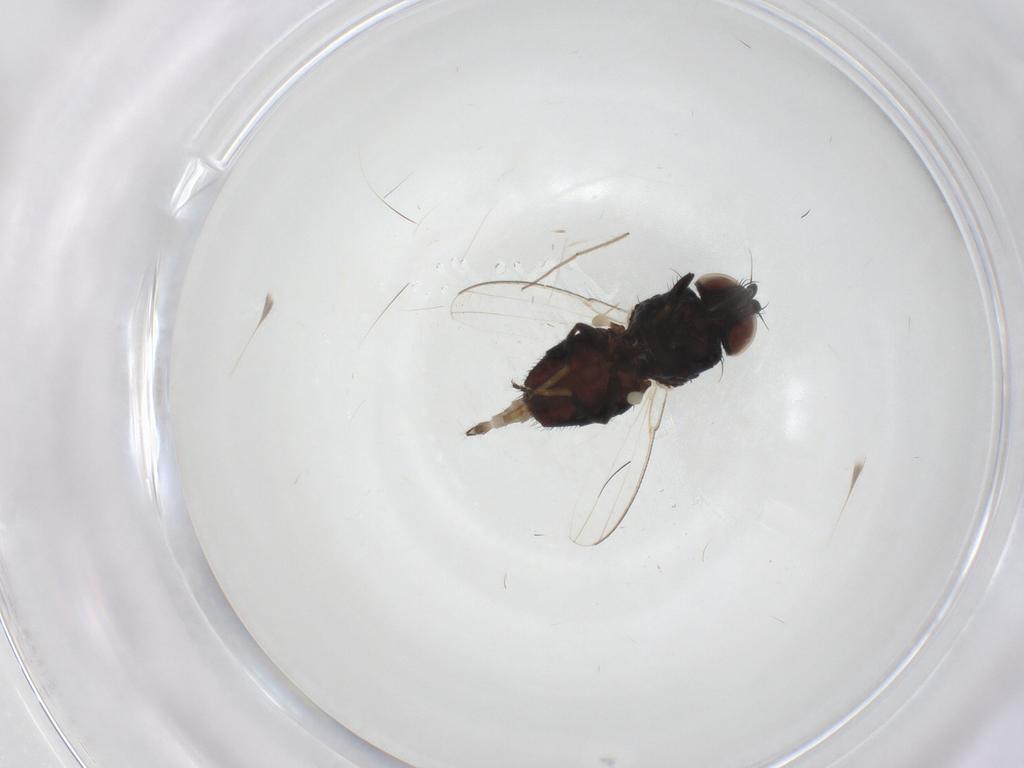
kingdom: Animalia
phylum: Arthropoda
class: Insecta
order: Diptera
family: Milichiidae
